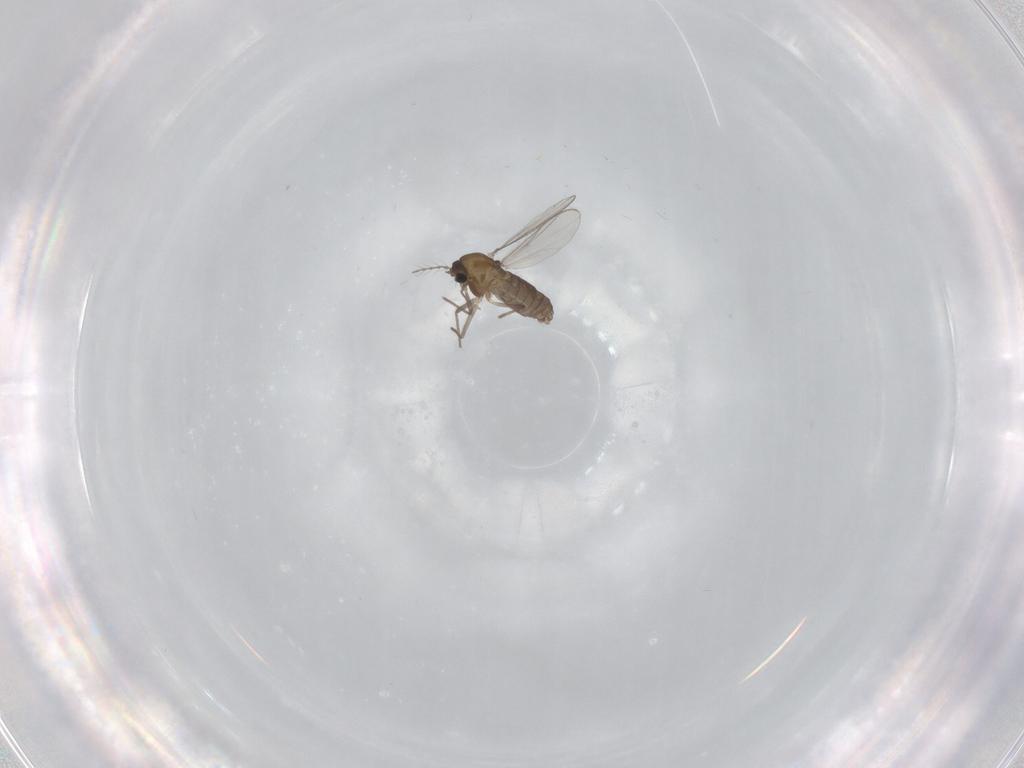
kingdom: Animalia
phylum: Arthropoda
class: Insecta
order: Diptera
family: Chironomidae
